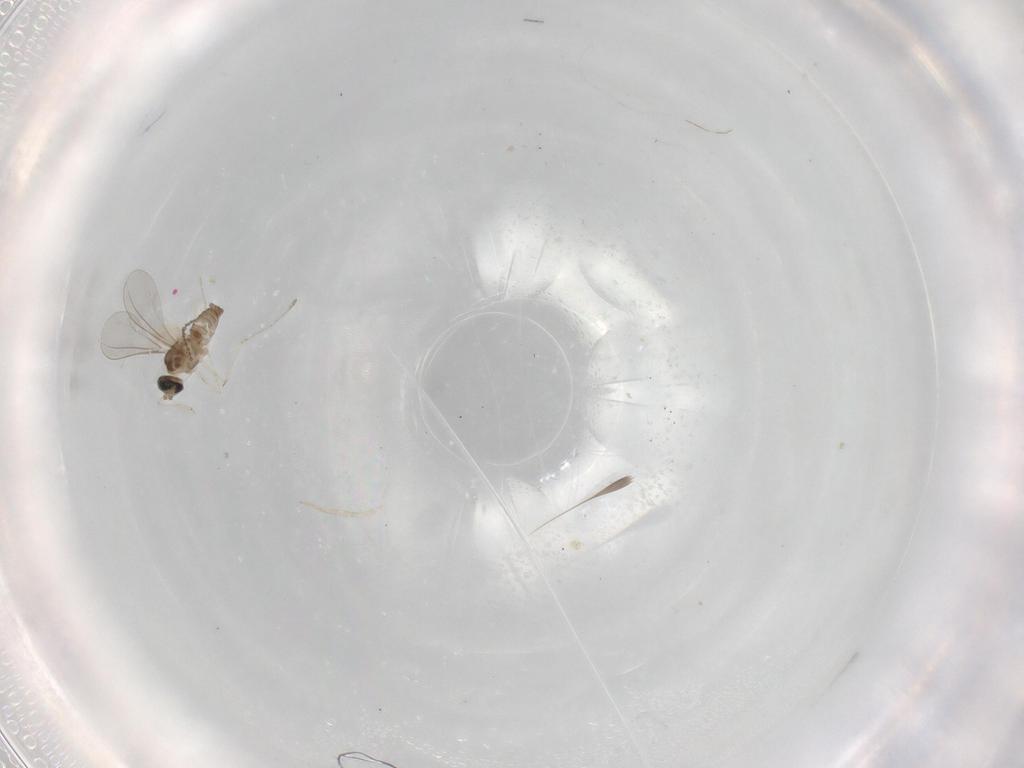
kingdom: Animalia
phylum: Arthropoda
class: Insecta
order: Diptera
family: Cecidomyiidae
